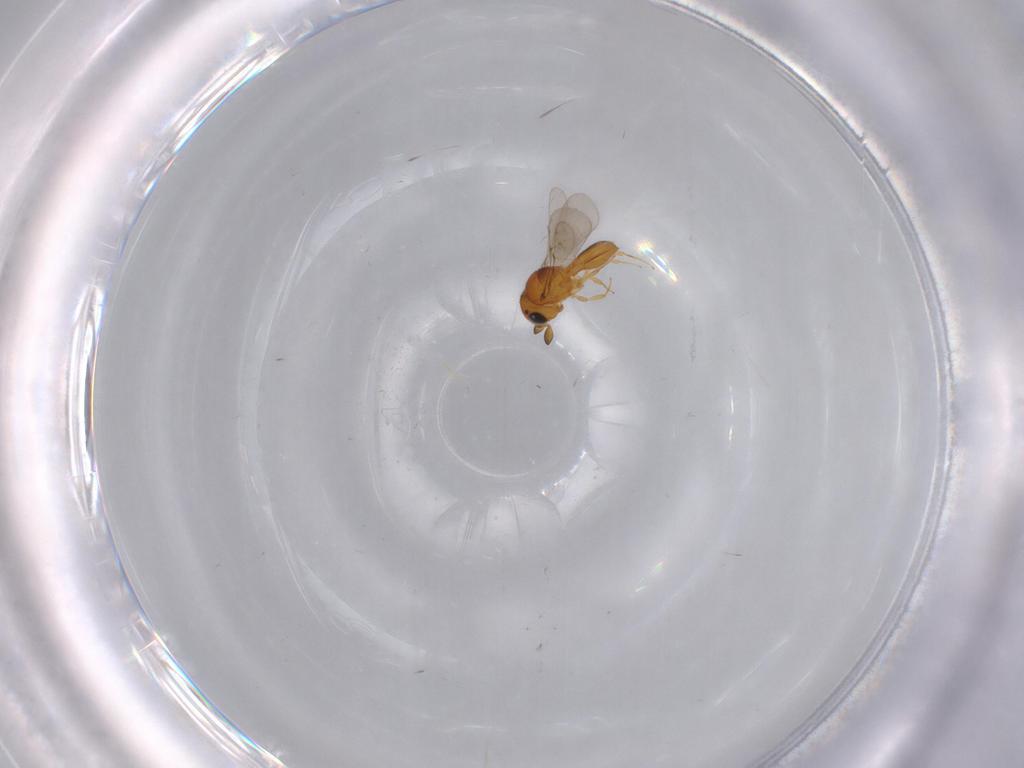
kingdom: Animalia
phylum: Arthropoda
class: Insecta
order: Hymenoptera
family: Scelionidae
